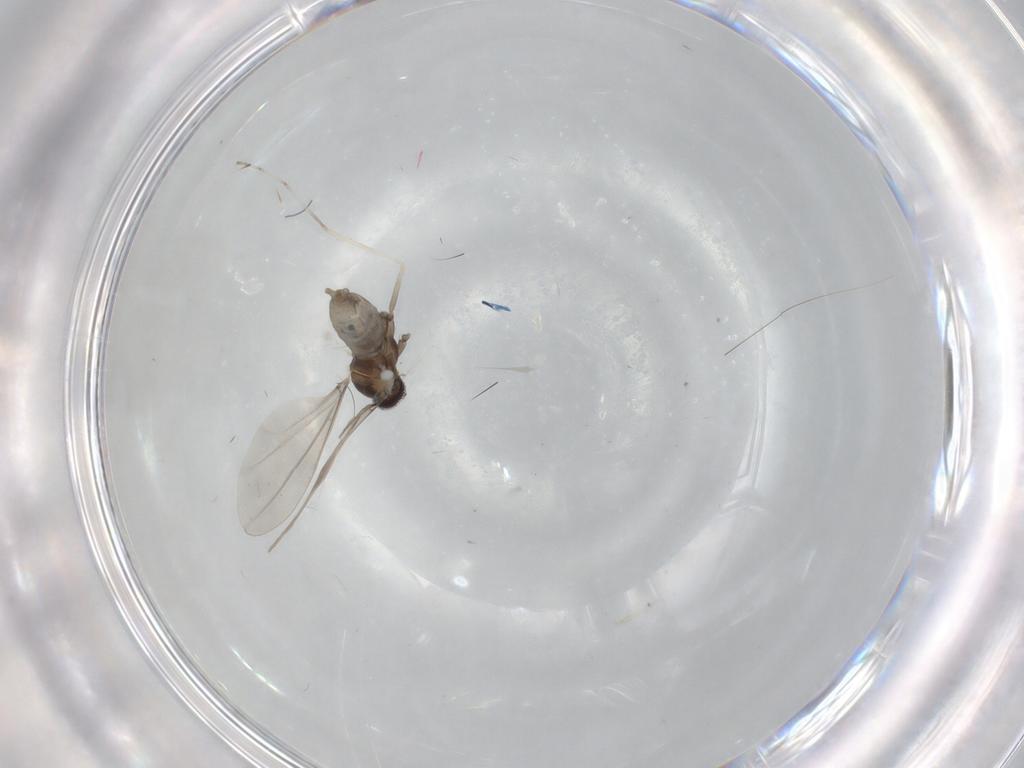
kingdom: Animalia
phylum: Arthropoda
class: Insecta
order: Diptera
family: Cecidomyiidae
